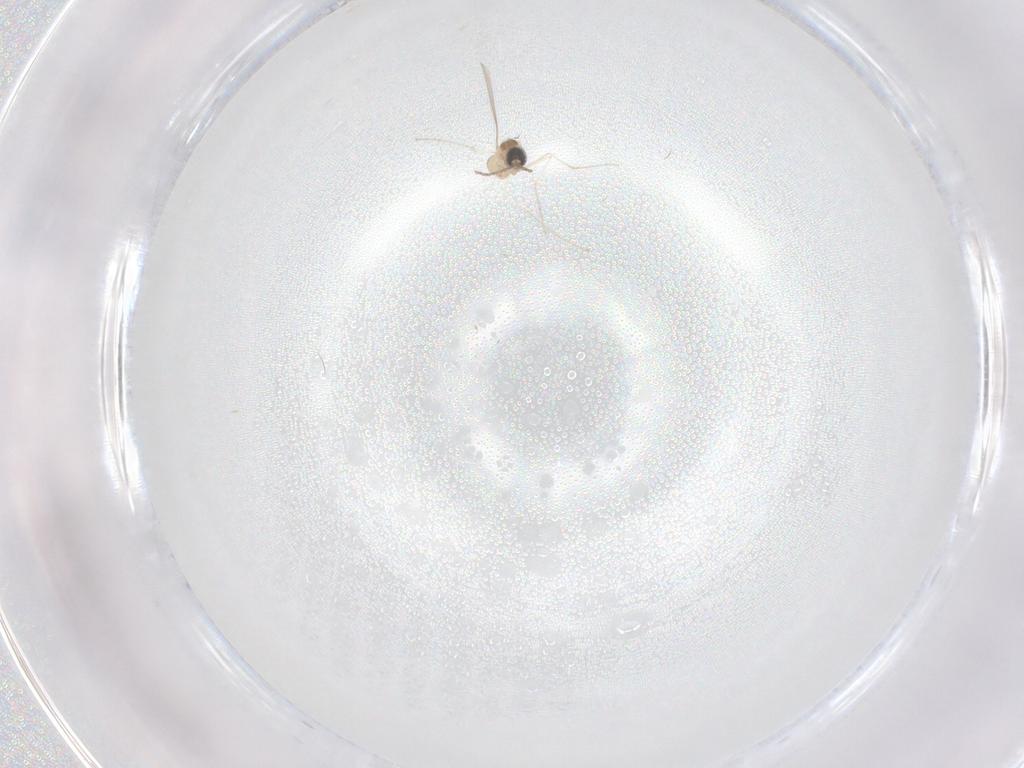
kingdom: Animalia
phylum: Arthropoda
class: Insecta
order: Diptera
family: Cecidomyiidae
